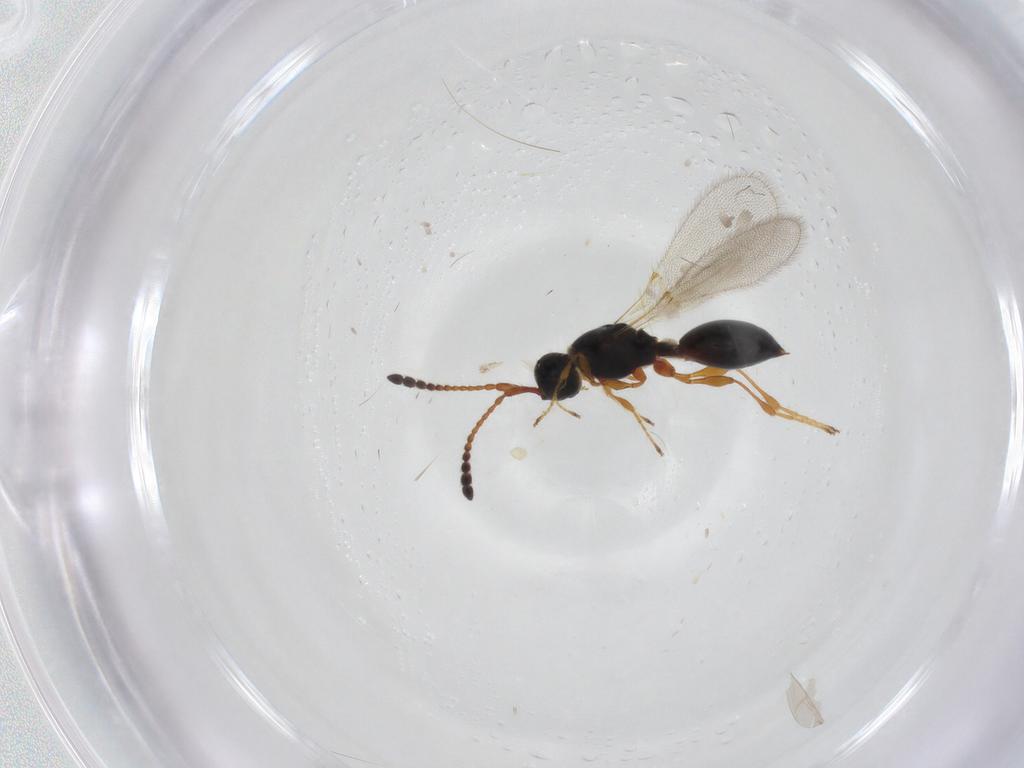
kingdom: Animalia
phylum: Arthropoda
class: Insecta
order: Hymenoptera
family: Diapriidae
